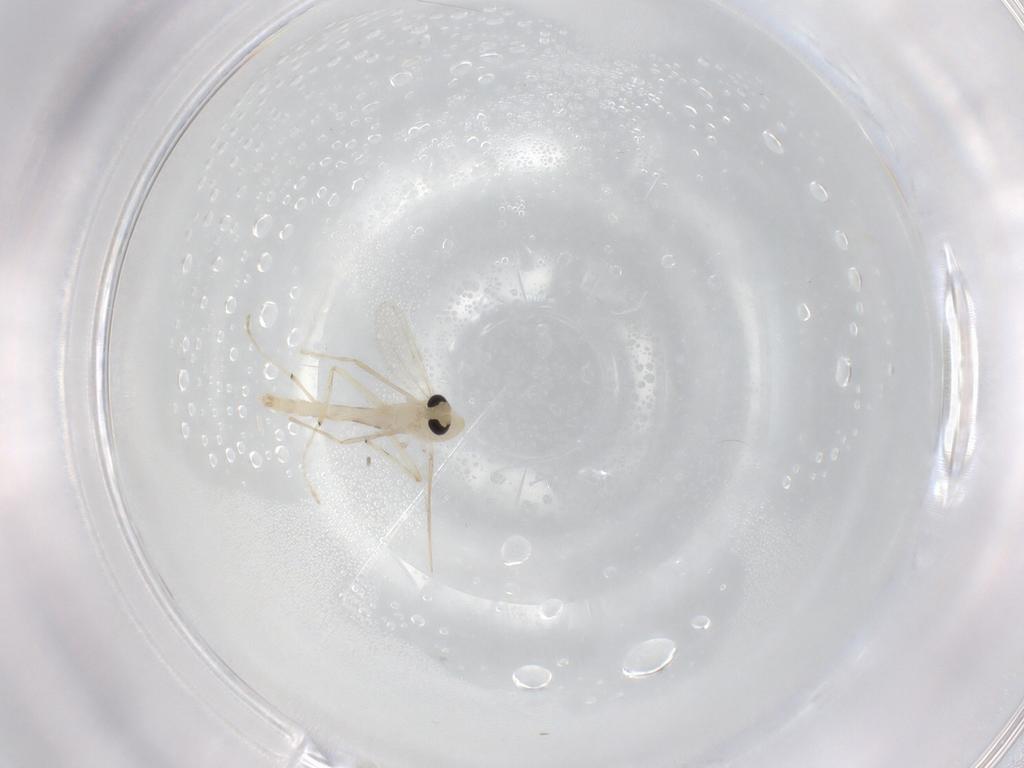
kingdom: Animalia
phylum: Arthropoda
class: Insecta
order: Diptera
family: Chironomidae
